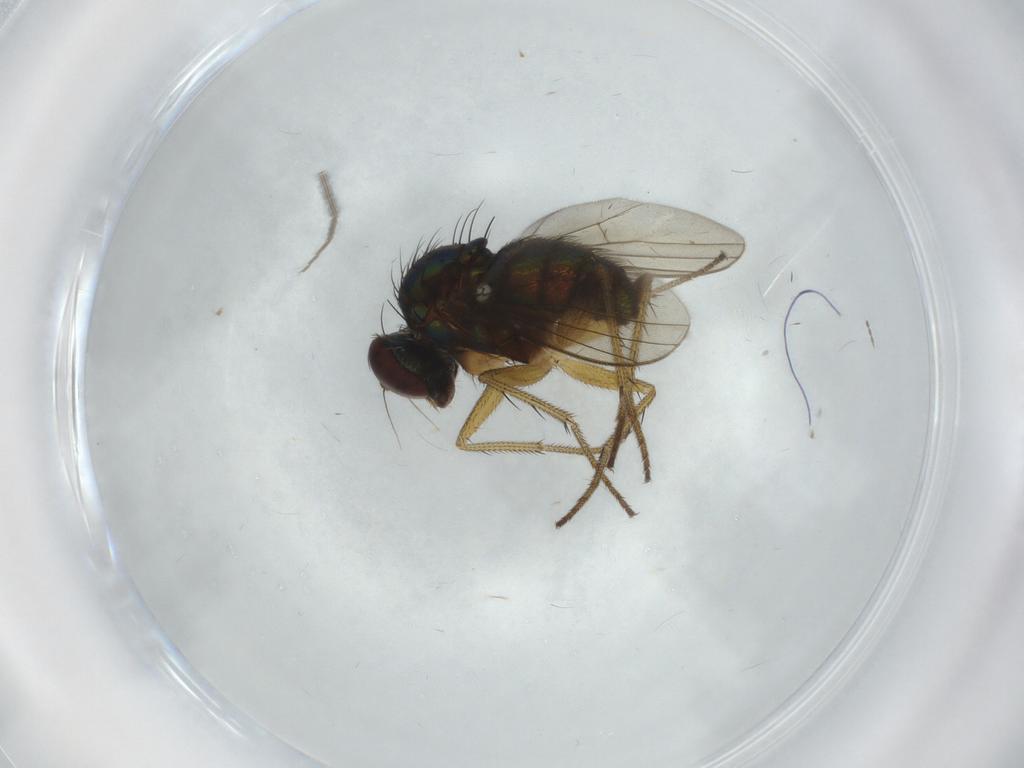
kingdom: Animalia
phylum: Arthropoda
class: Insecta
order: Diptera
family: Dolichopodidae
